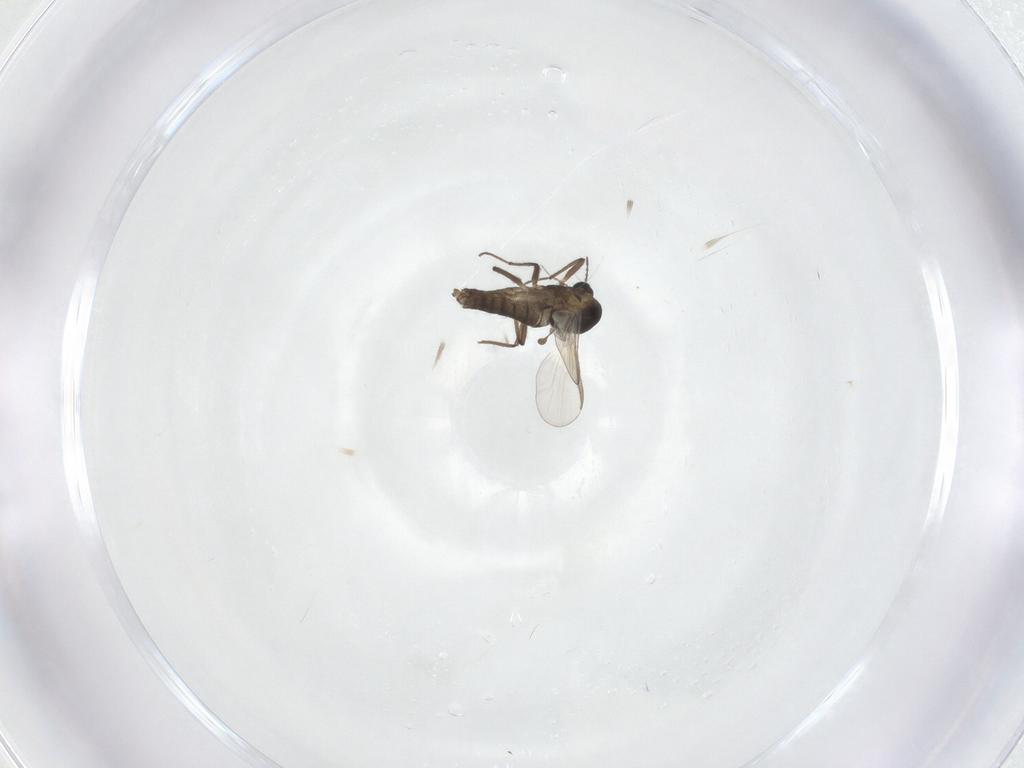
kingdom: Animalia
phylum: Arthropoda
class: Insecta
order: Diptera
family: Chironomidae
